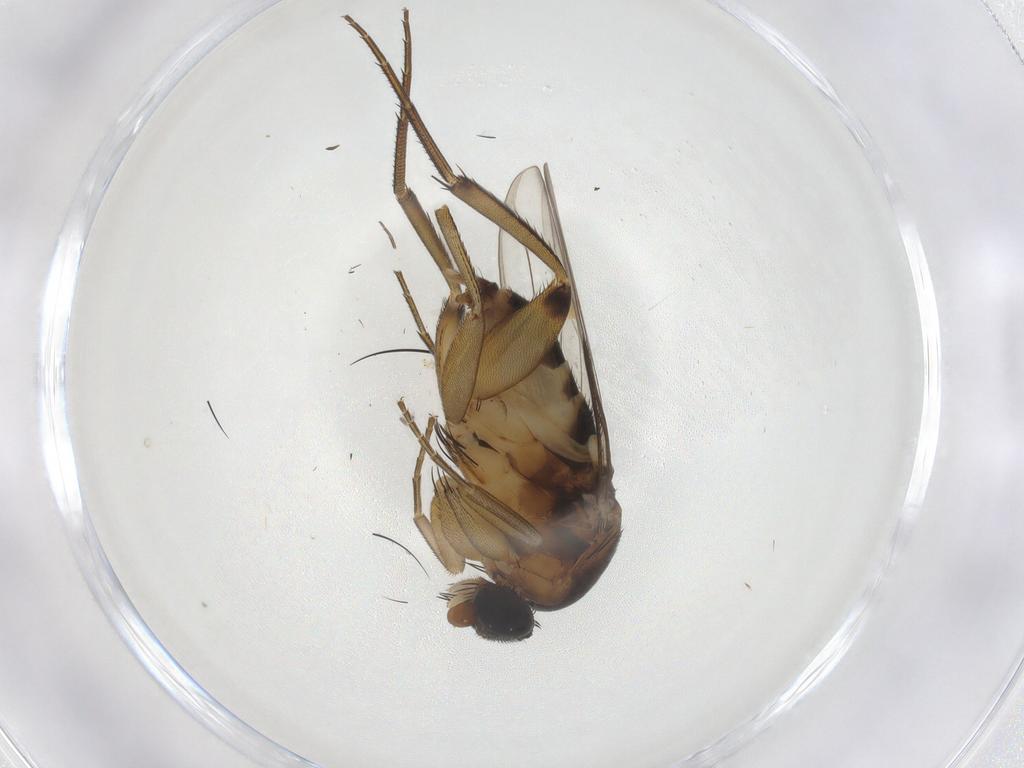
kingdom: Animalia
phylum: Arthropoda
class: Insecta
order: Diptera
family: Phoridae
